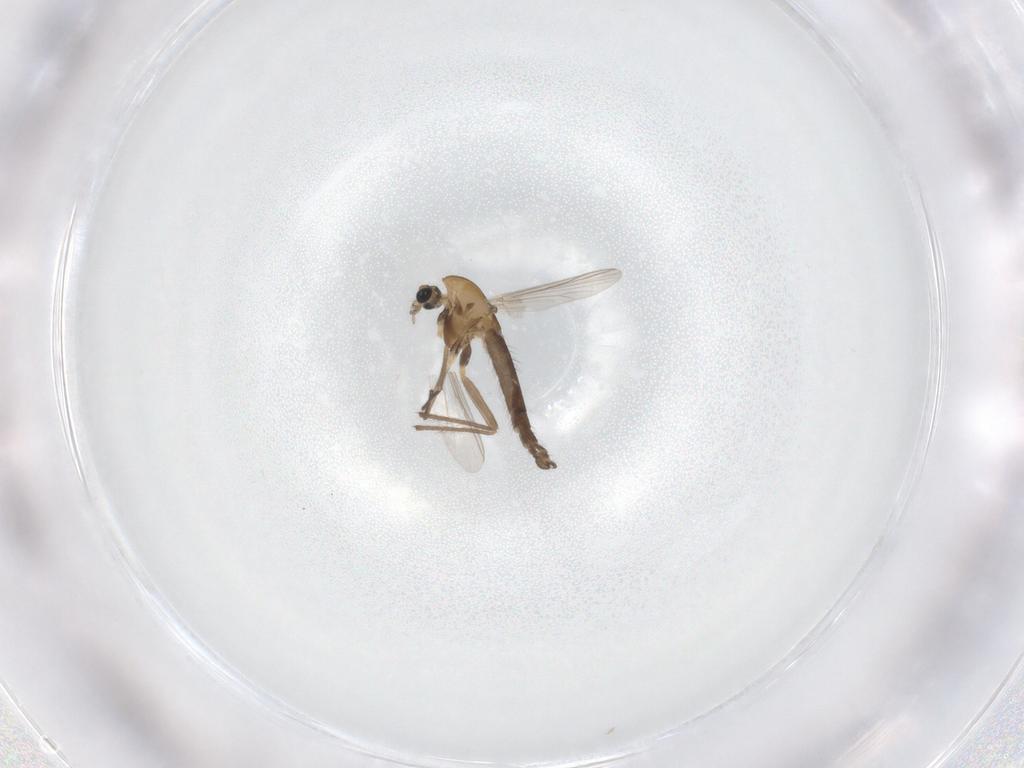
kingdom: Animalia
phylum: Arthropoda
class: Insecta
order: Diptera
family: Chironomidae
